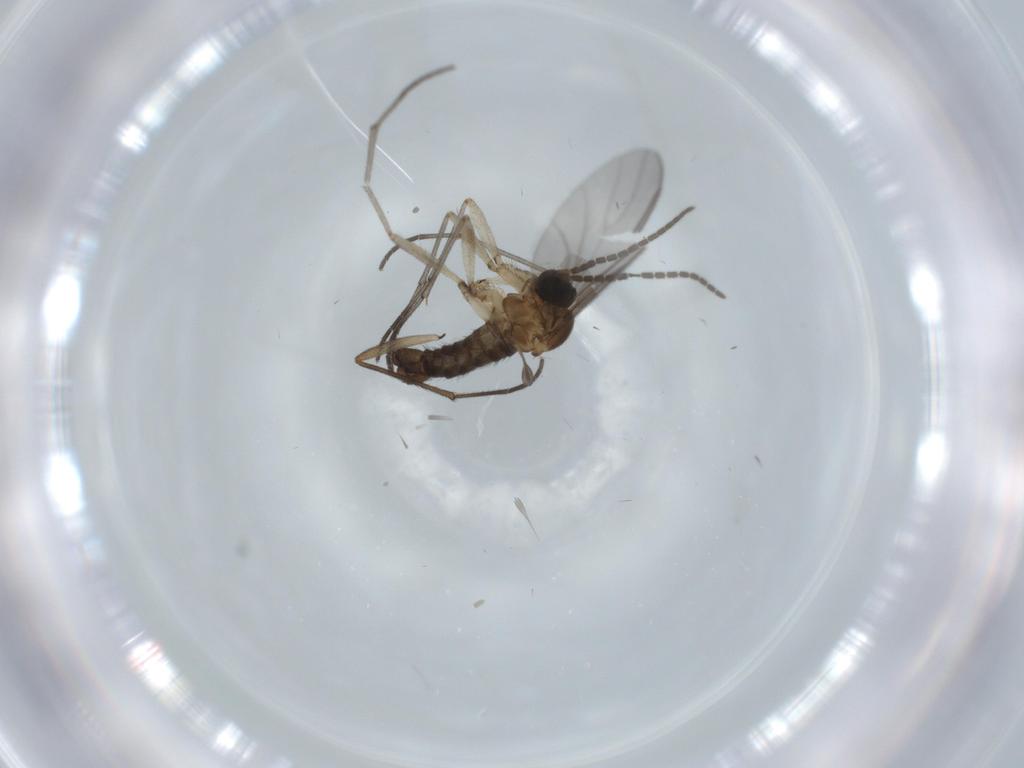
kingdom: Animalia
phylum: Arthropoda
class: Insecta
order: Diptera
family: Sciaridae
